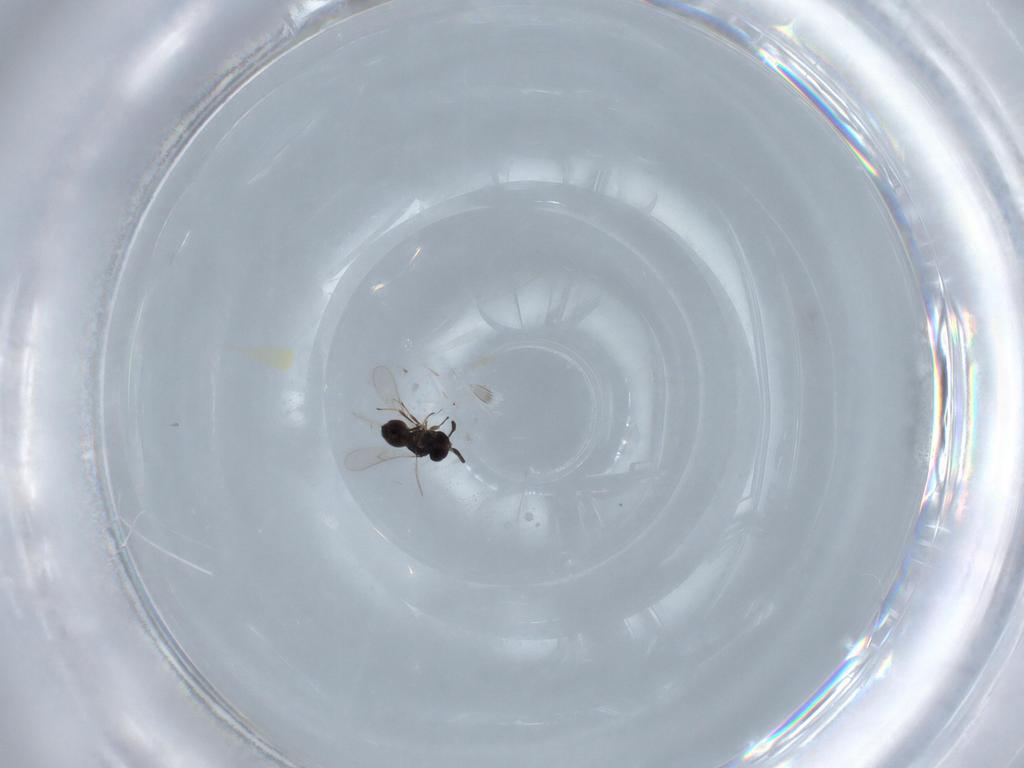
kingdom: Animalia
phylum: Arthropoda
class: Insecta
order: Hymenoptera
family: Scelionidae
